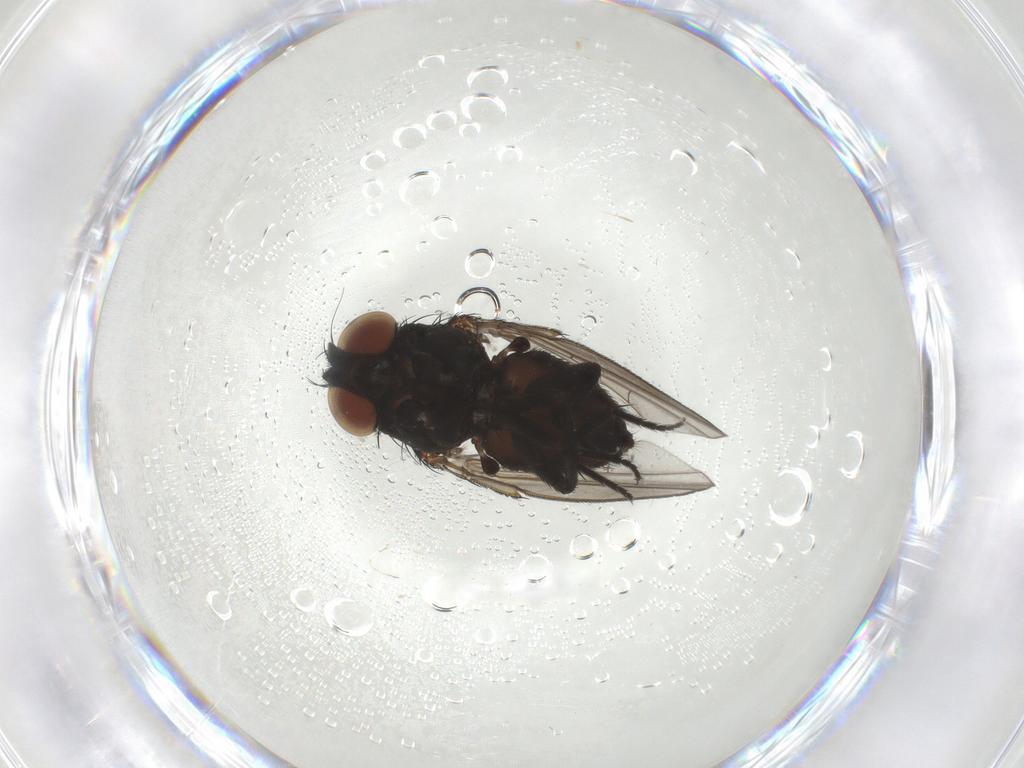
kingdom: Animalia
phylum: Arthropoda
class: Insecta
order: Diptera
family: Milichiidae
